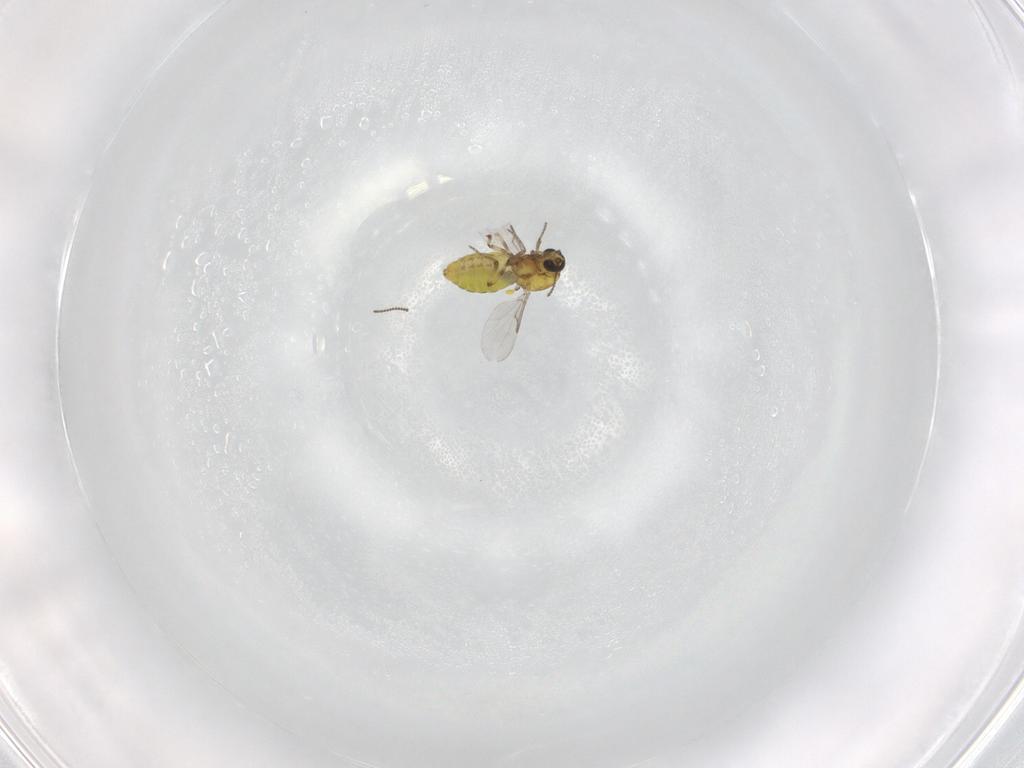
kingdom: Animalia
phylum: Arthropoda
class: Insecta
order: Diptera
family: Ceratopogonidae
